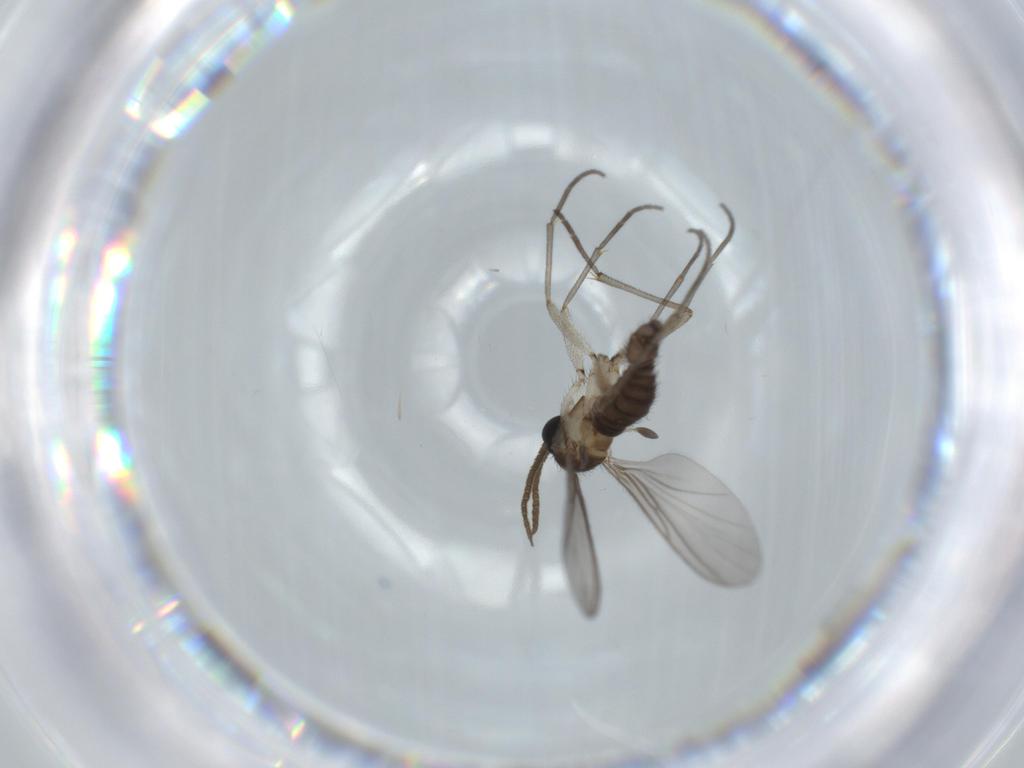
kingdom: Animalia
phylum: Arthropoda
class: Insecta
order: Diptera
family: Sciaridae
